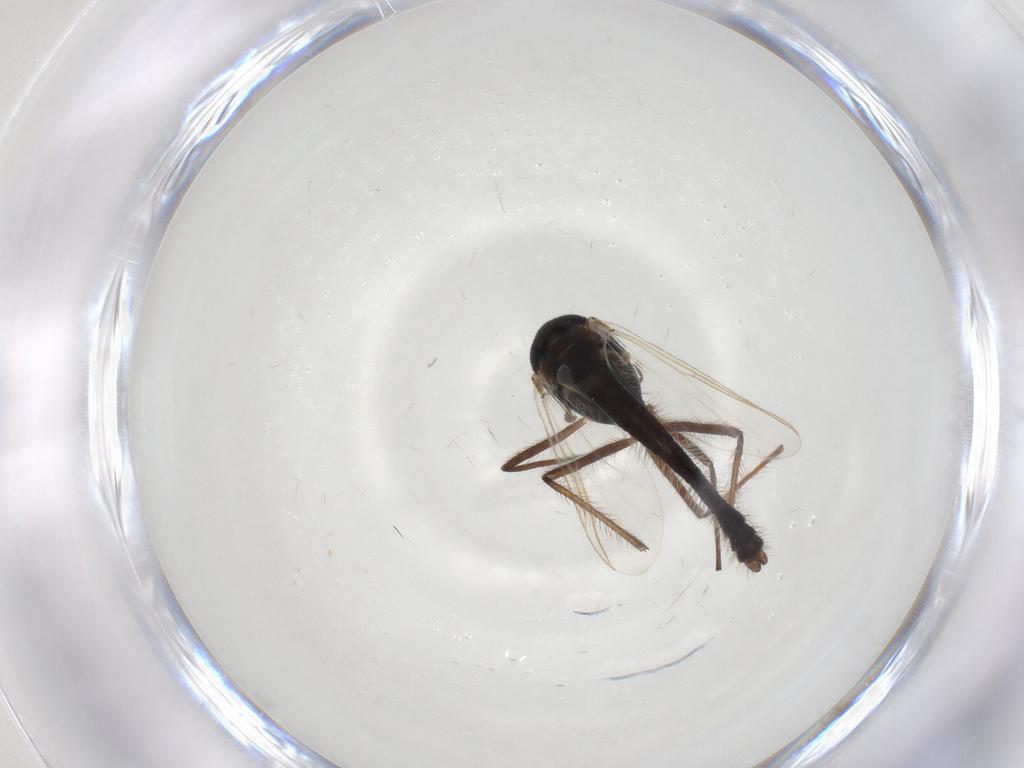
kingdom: Animalia
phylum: Arthropoda
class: Insecta
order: Diptera
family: Chironomidae
